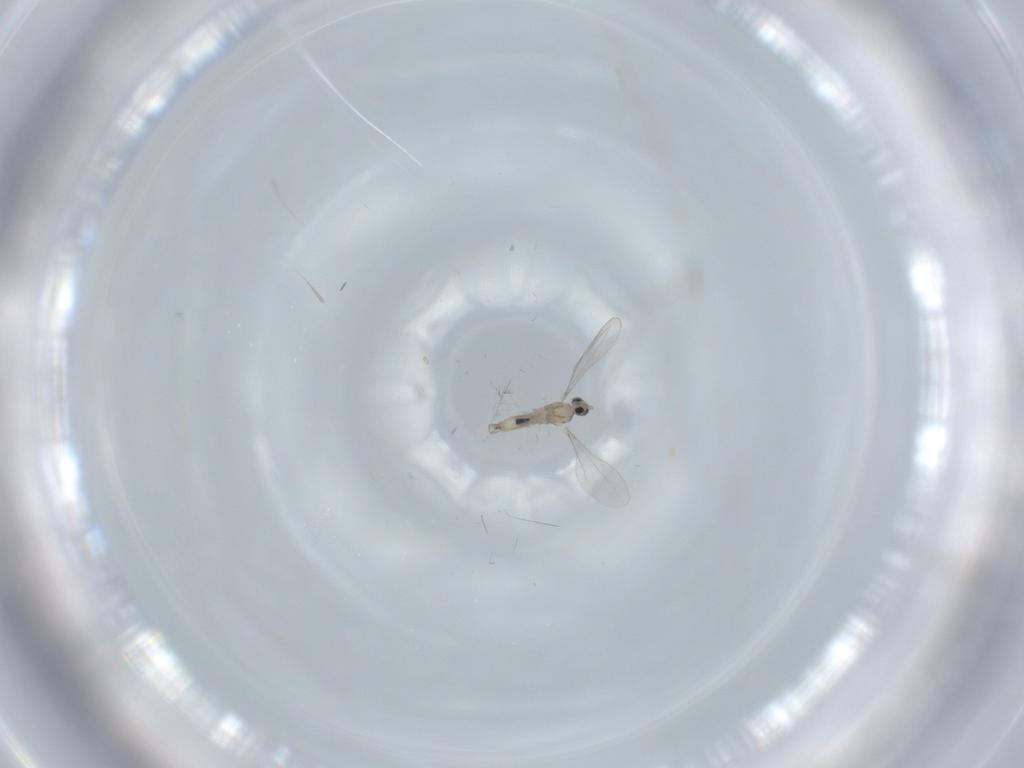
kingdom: Animalia
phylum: Arthropoda
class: Insecta
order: Diptera
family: Cecidomyiidae
